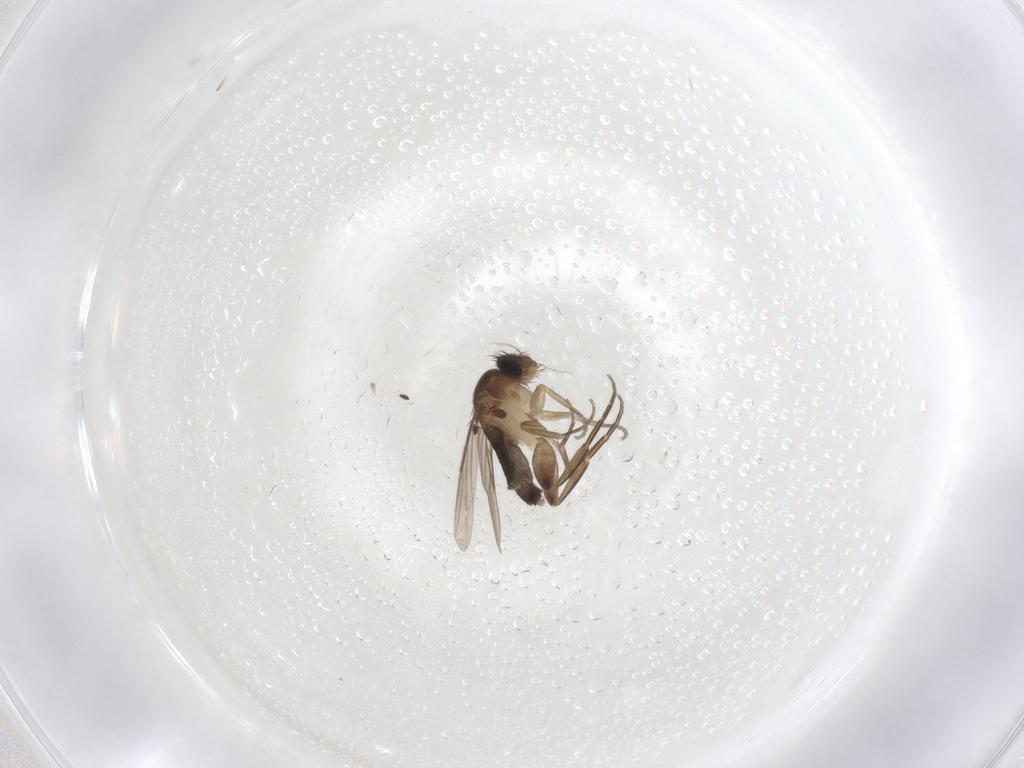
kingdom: Animalia
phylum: Arthropoda
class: Insecta
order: Diptera
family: Phoridae
